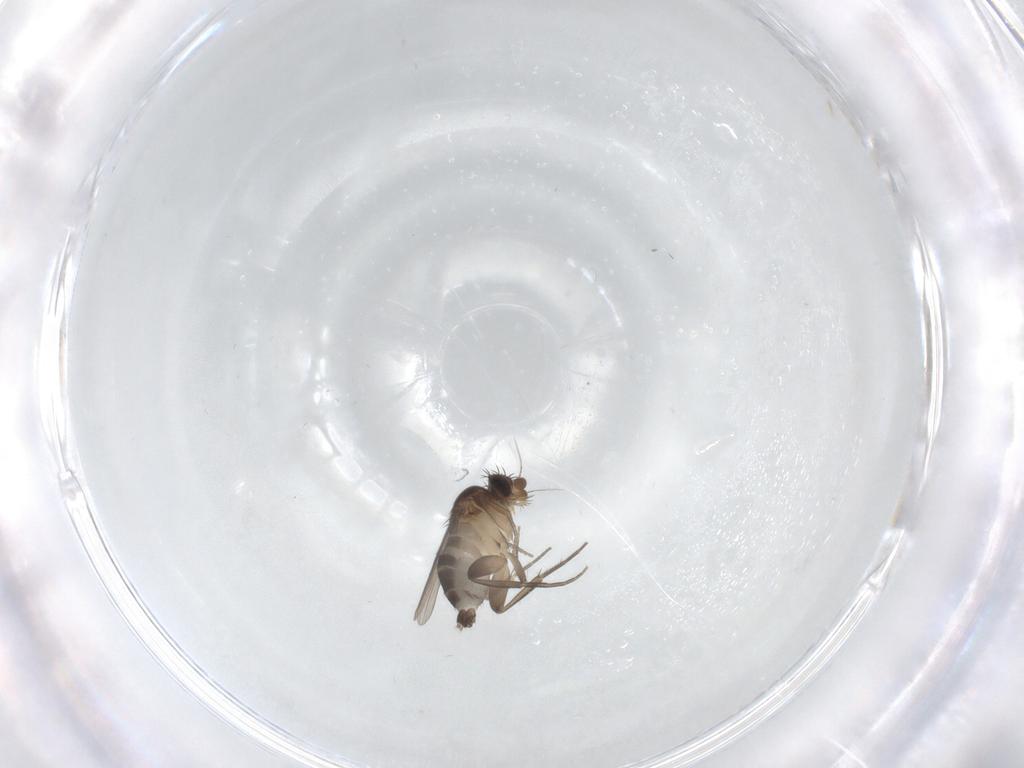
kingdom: Animalia
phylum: Arthropoda
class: Insecta
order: Diptera
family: Phoridae
